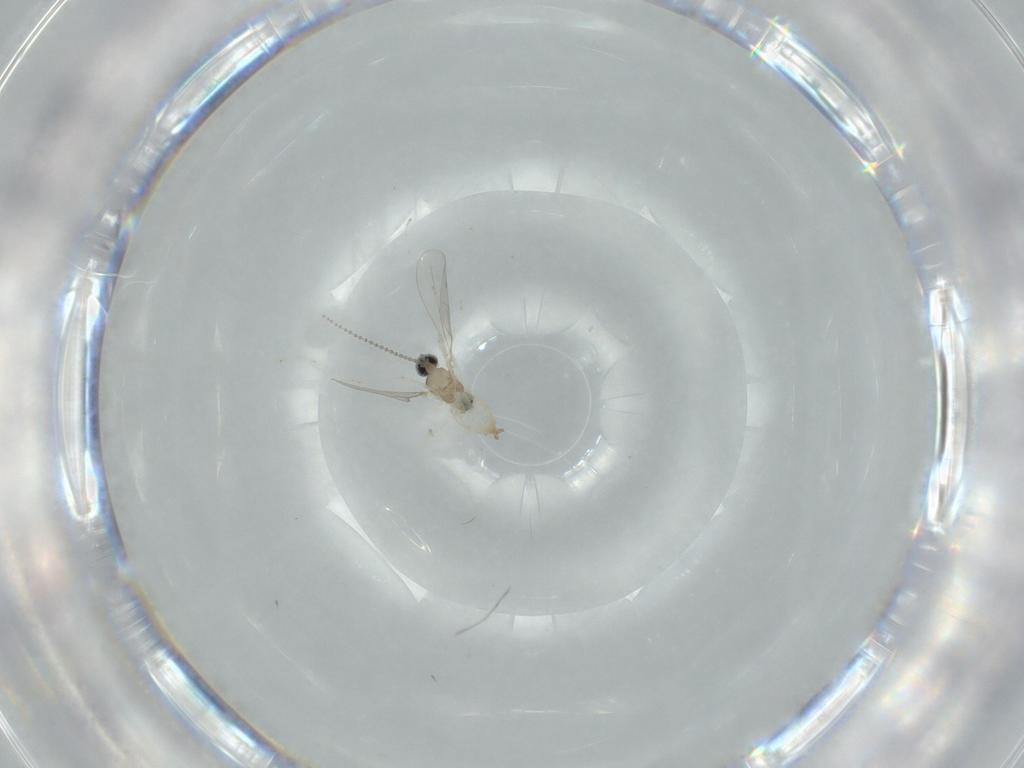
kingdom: Animalia
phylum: Arthropoda
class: Insecta
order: Diptera
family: Cecidomyiidae
